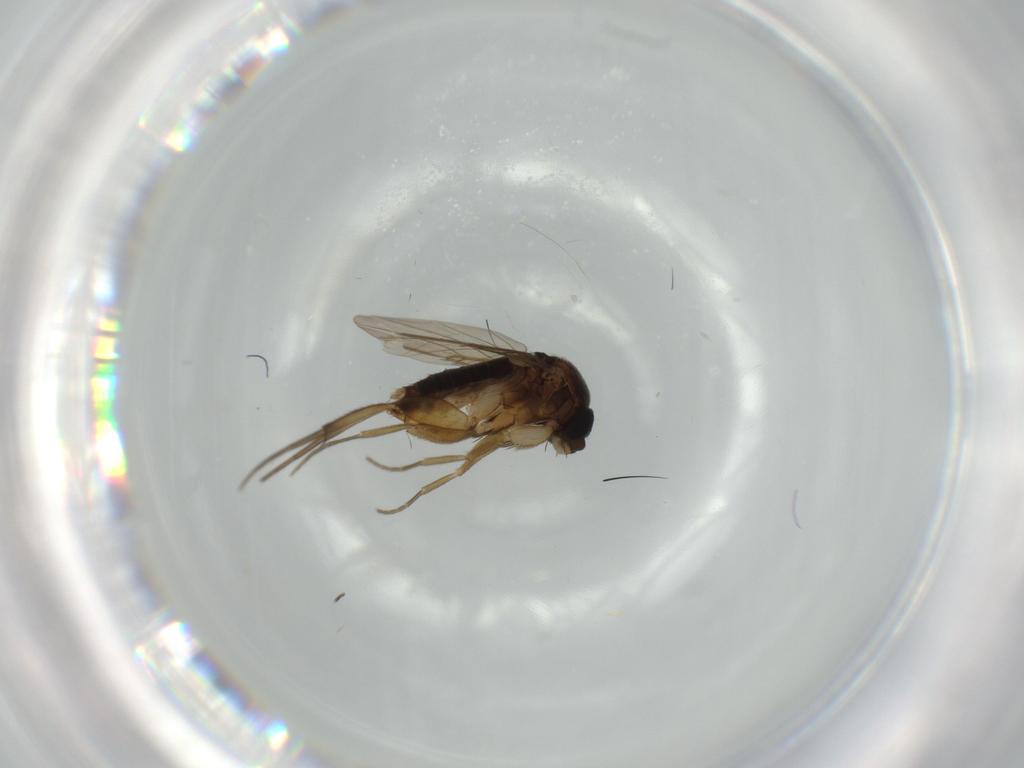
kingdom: Animalia
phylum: Arthropoda
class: Insecta
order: Diptera
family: Phoridae
